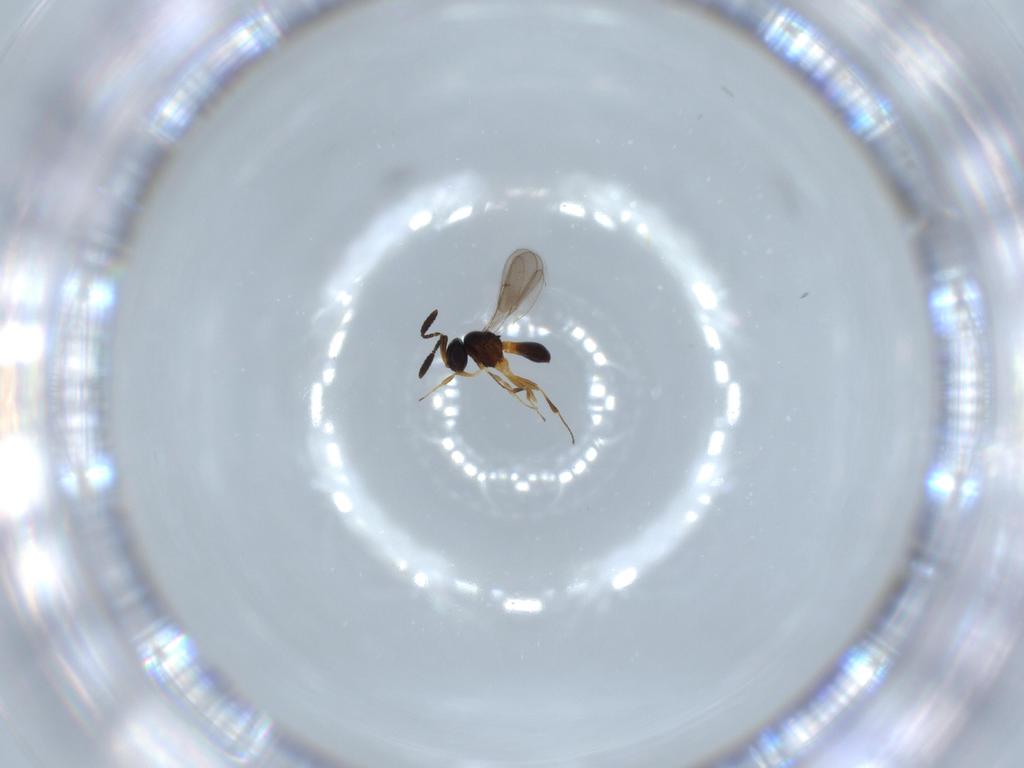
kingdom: Animalia
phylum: Arthropoda
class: Insecta
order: Hymenoptera
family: Scelionidae
